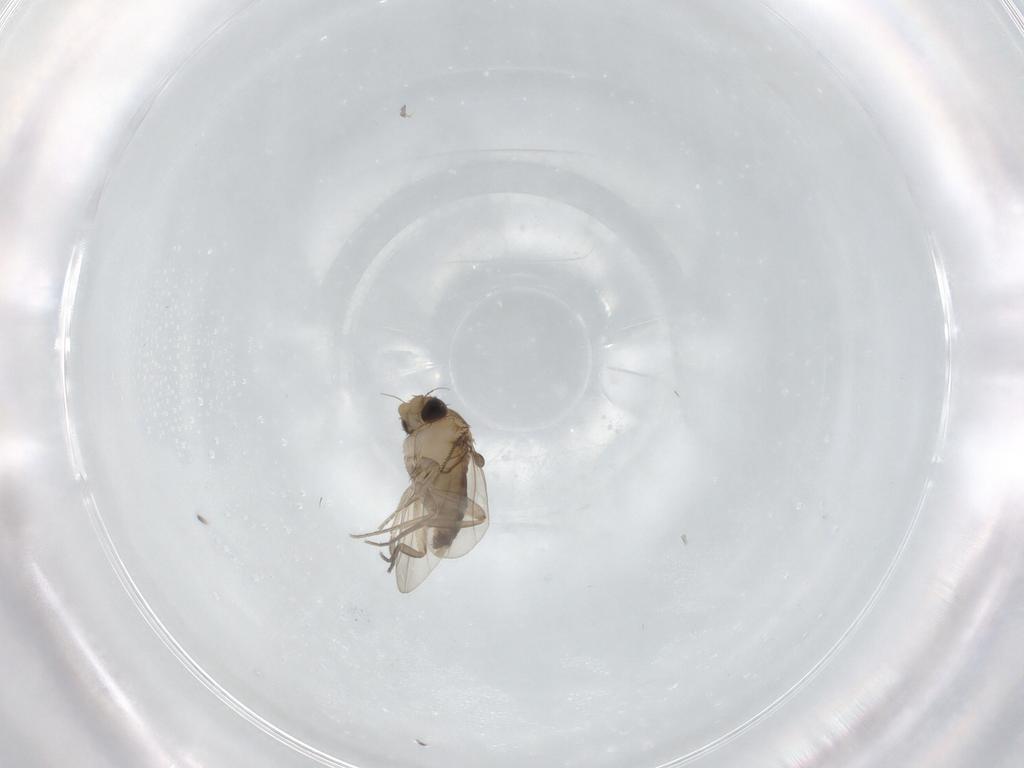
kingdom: Animalia
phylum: Arthropoda
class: Insecta
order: Diptera
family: Phoridae
